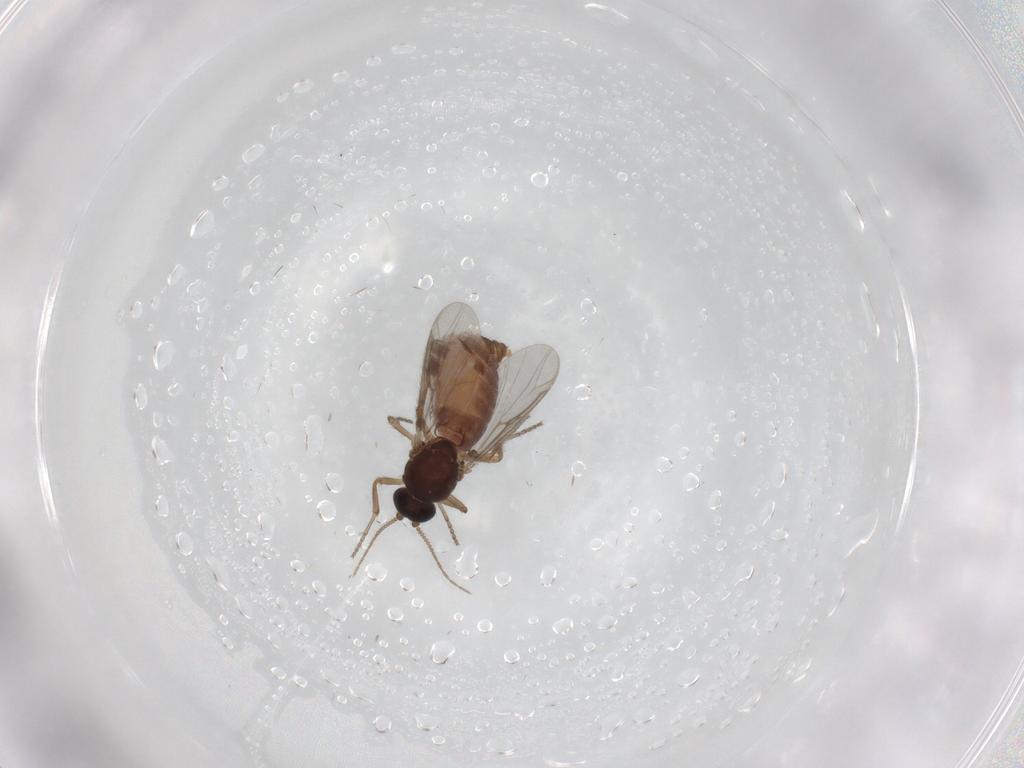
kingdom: Animalia
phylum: Arthropoda
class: Insecta
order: Diptera
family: Ceratopogonidae
